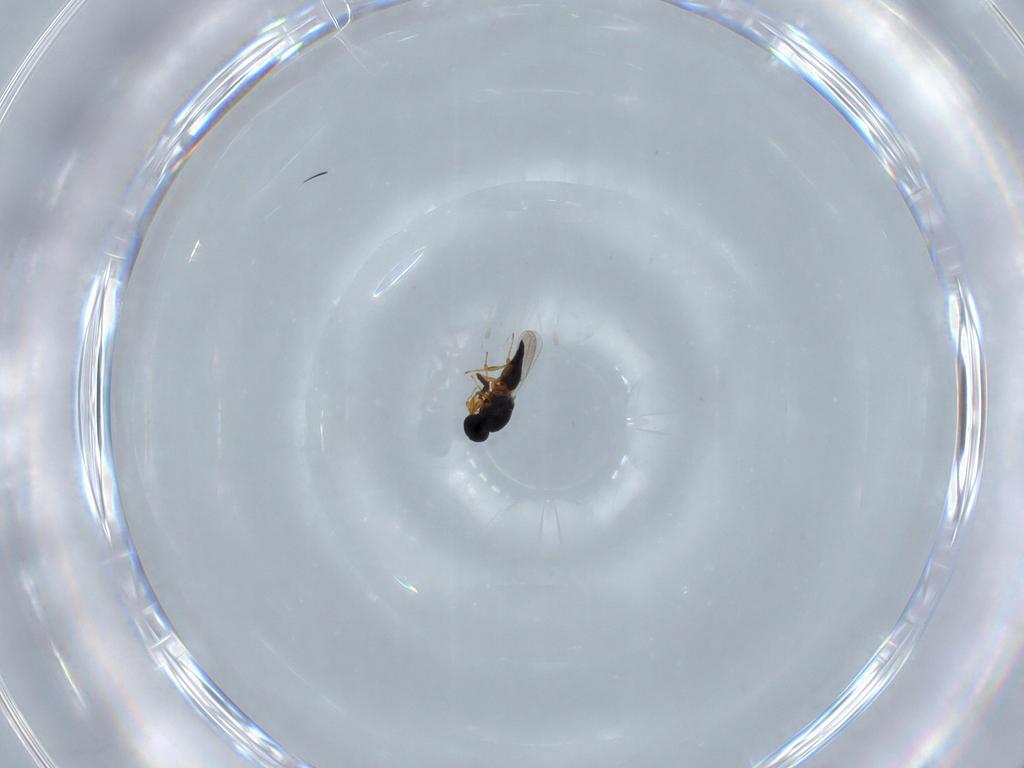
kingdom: Animalia
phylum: Arthropoda
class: Insecta
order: Hymenoptera
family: Platygastridae
